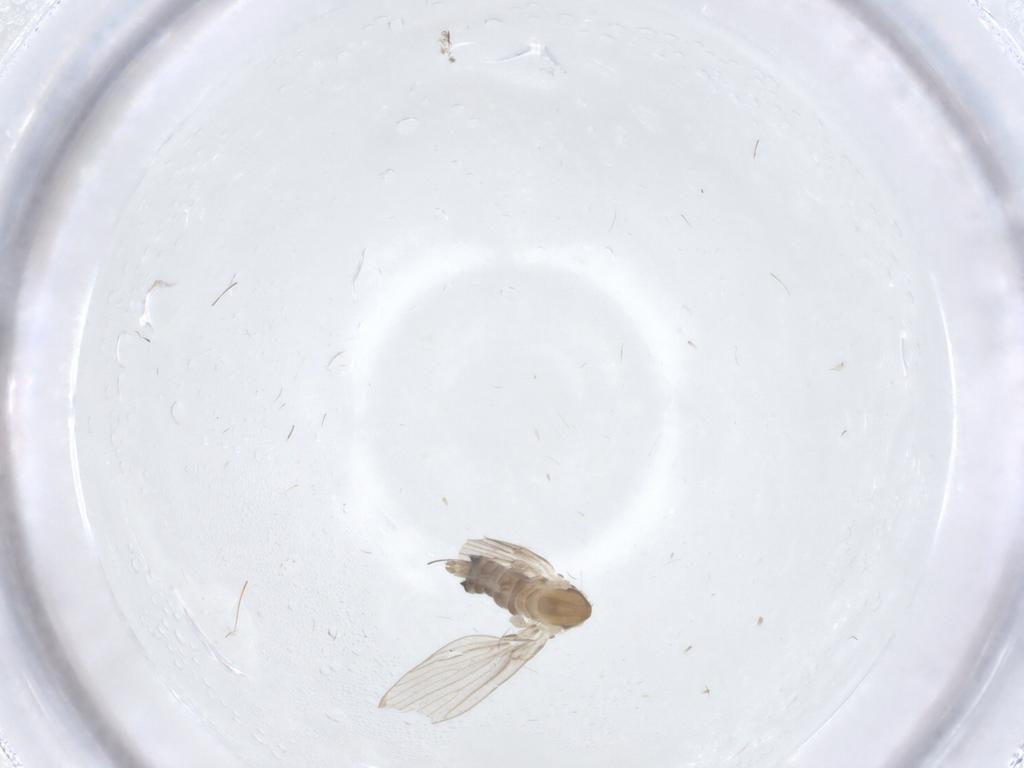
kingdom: Animalia
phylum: Arthropoda
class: Insecta
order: Diptera
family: Psychodidae
